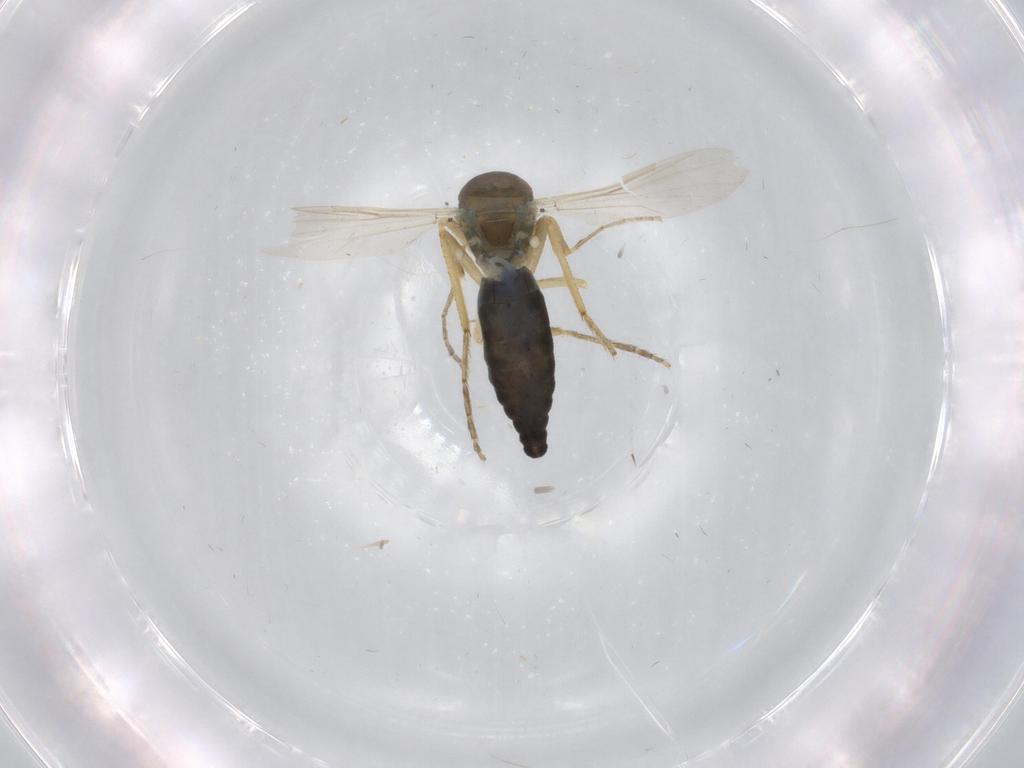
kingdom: Animalia
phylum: Arthropoda
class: Insecta
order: Diptera
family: Ceratopogonidae
